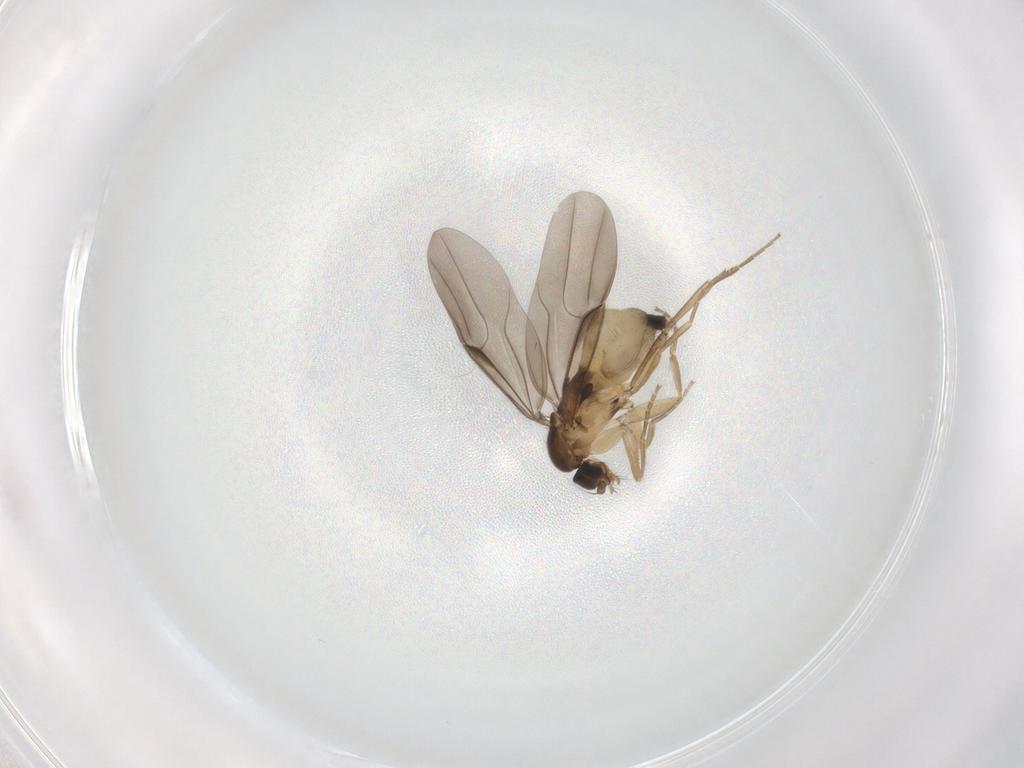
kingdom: Animalia
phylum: Arthropoda
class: Insecta
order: Diptera
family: Phoridae
